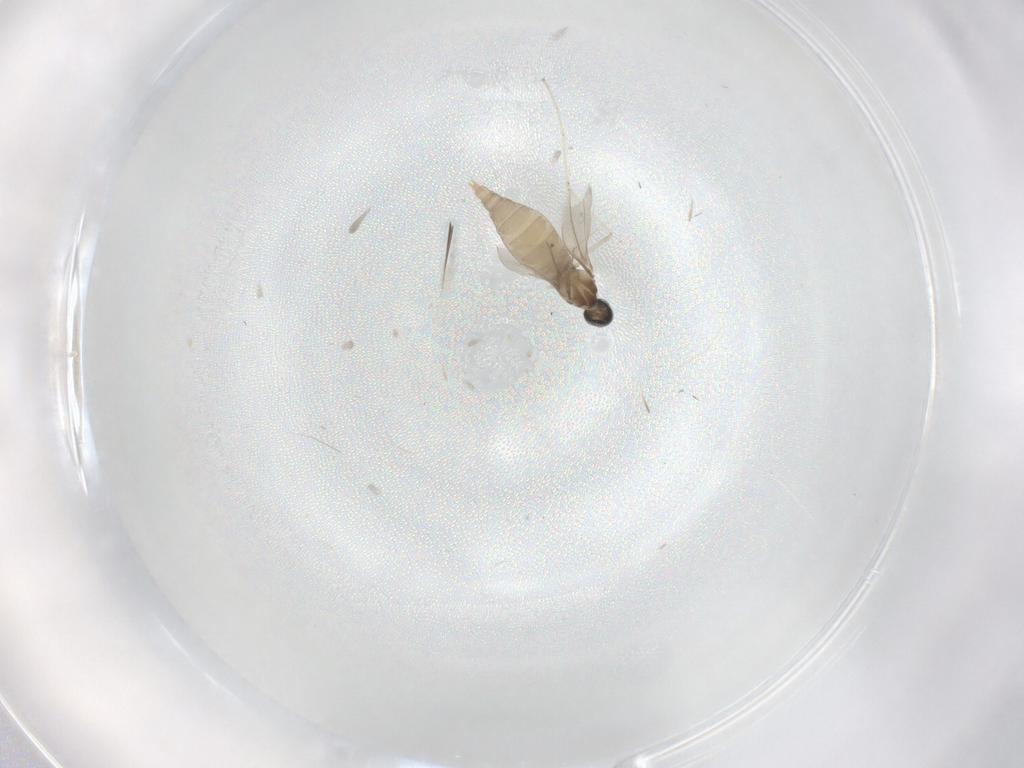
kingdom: Animalia
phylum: Arthropoda
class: Insecta
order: Diptera
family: Cecidomyiidae
